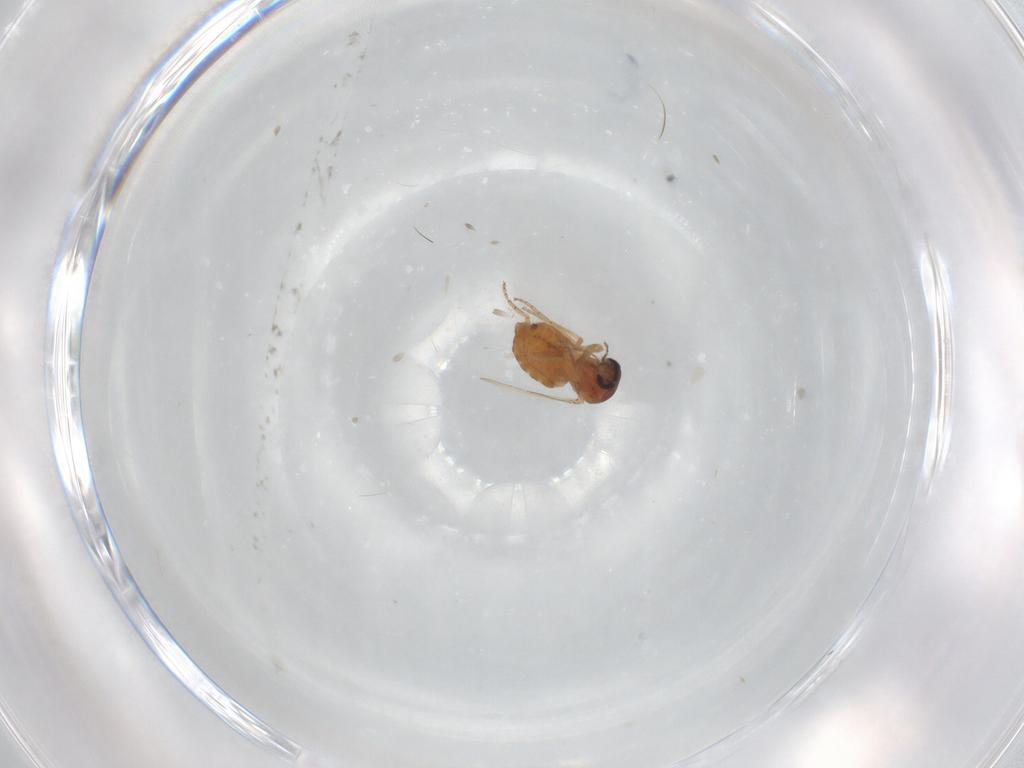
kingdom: Animalia
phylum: Arthropoda
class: Insecta
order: Diptera
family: Ceratopogonidae
